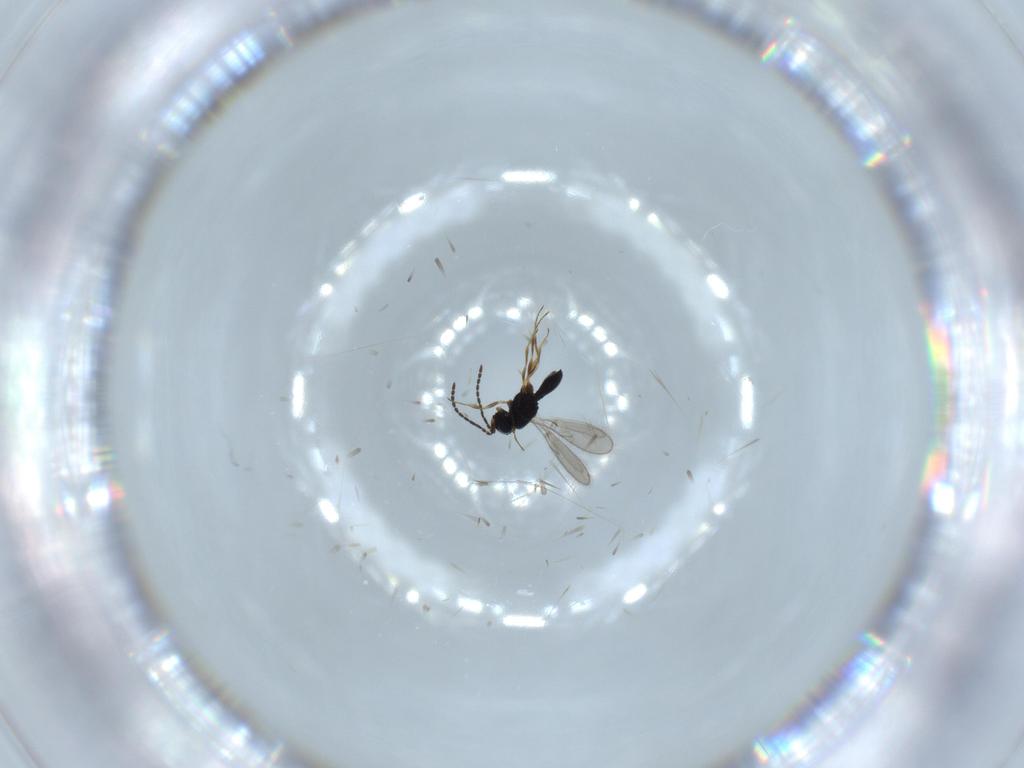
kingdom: Animalia
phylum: Arthropoda
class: Insecta
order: Hymenoptera
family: Scelionidae
